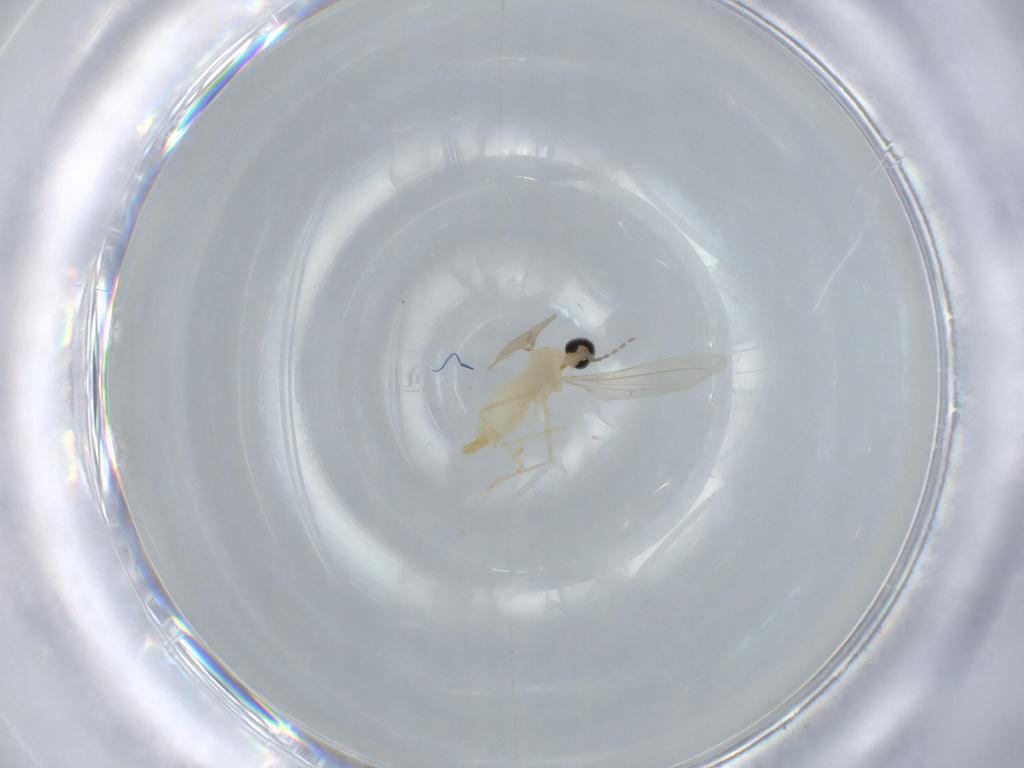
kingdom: Animalia
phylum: Arthropoda
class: Insecta
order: Diptera
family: Cecidomyiidae
